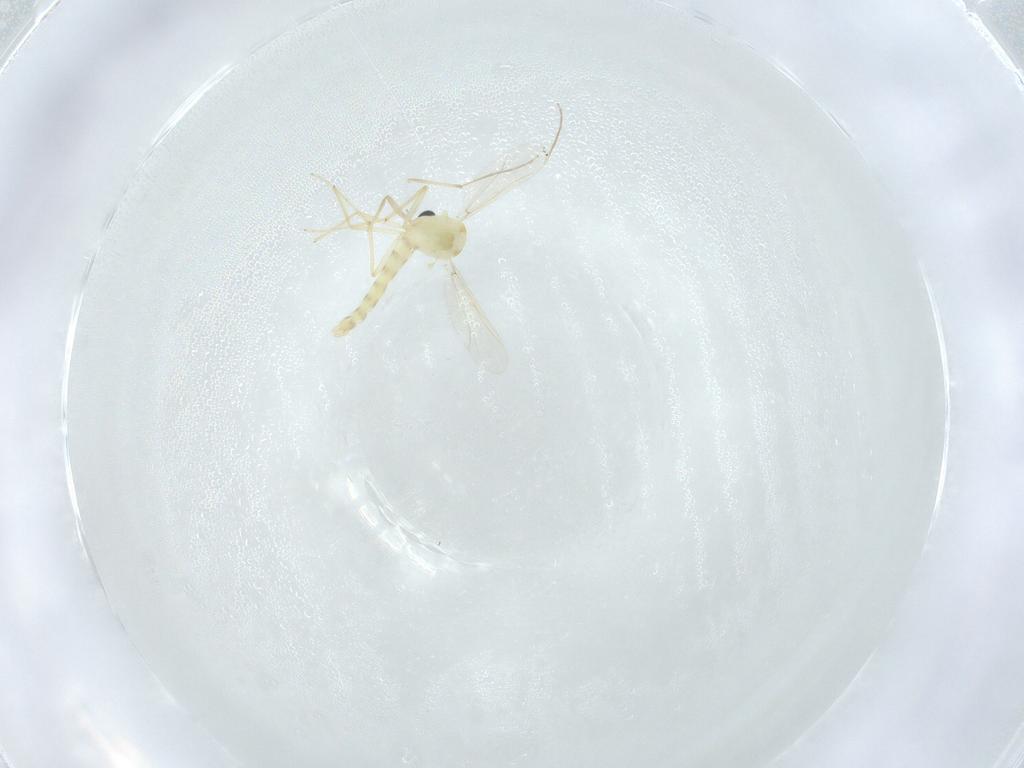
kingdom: Animalia
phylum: Arthropoda
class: Insecta
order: Diptera
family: Chironomidae
